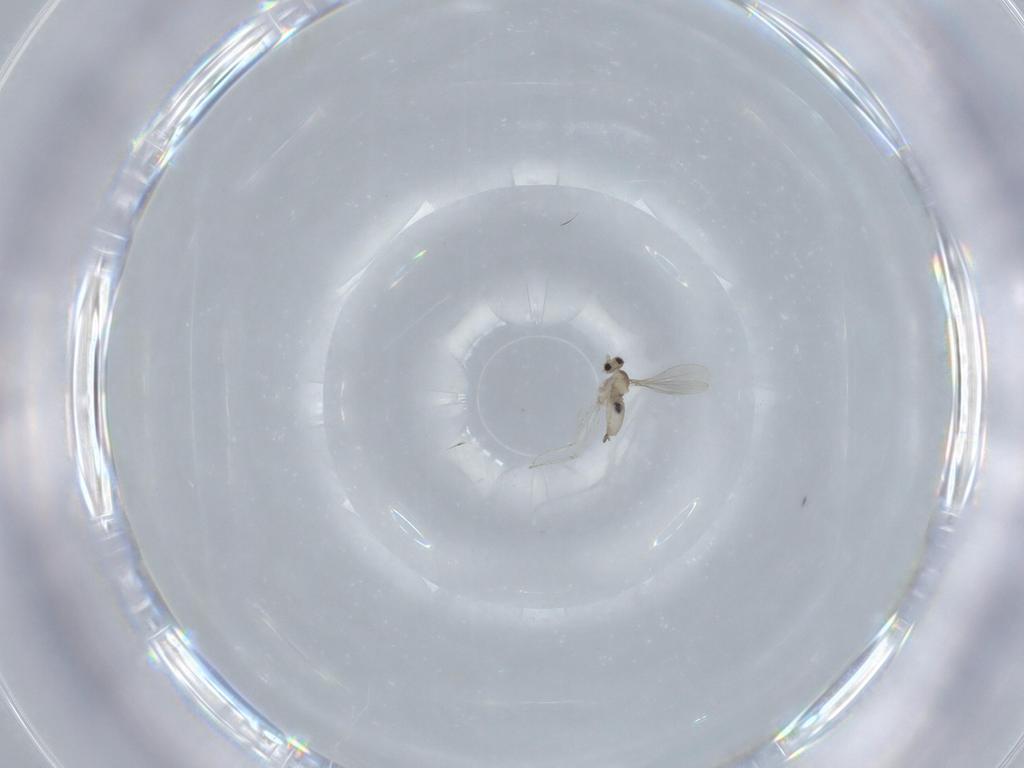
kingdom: Animalia
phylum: Arthropoda
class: Insecta
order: Diptera
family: Cecidomyiidae
